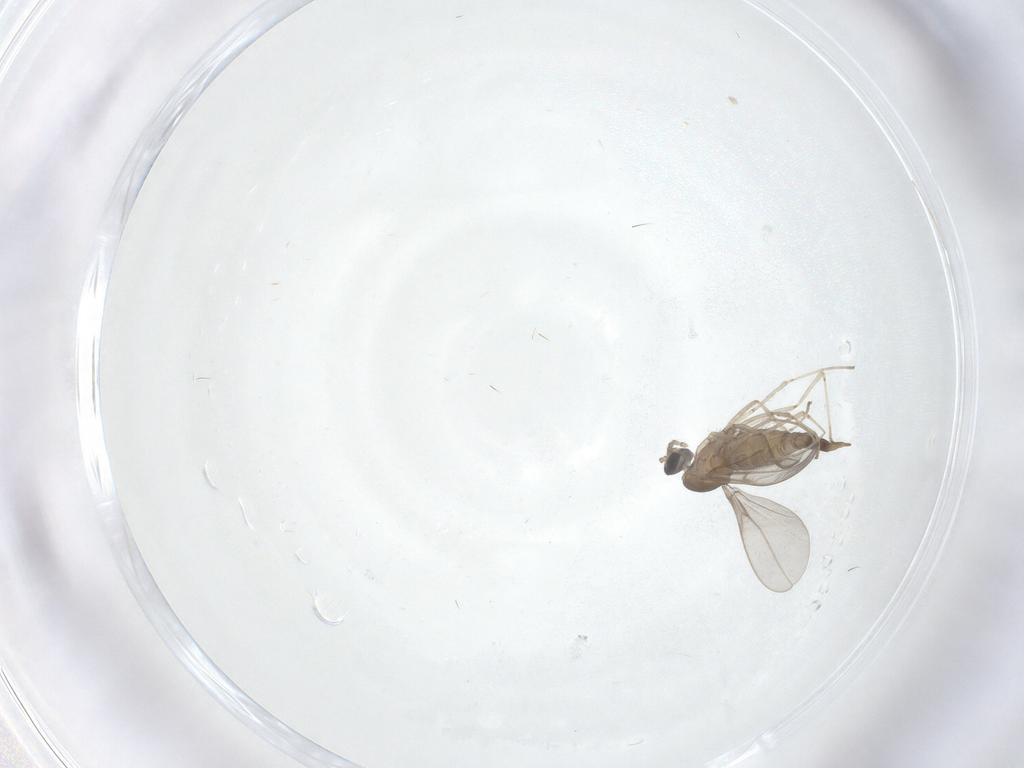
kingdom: Animalia
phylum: Arthropoda
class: Insecta
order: Diptera
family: Cecidomyiidae
